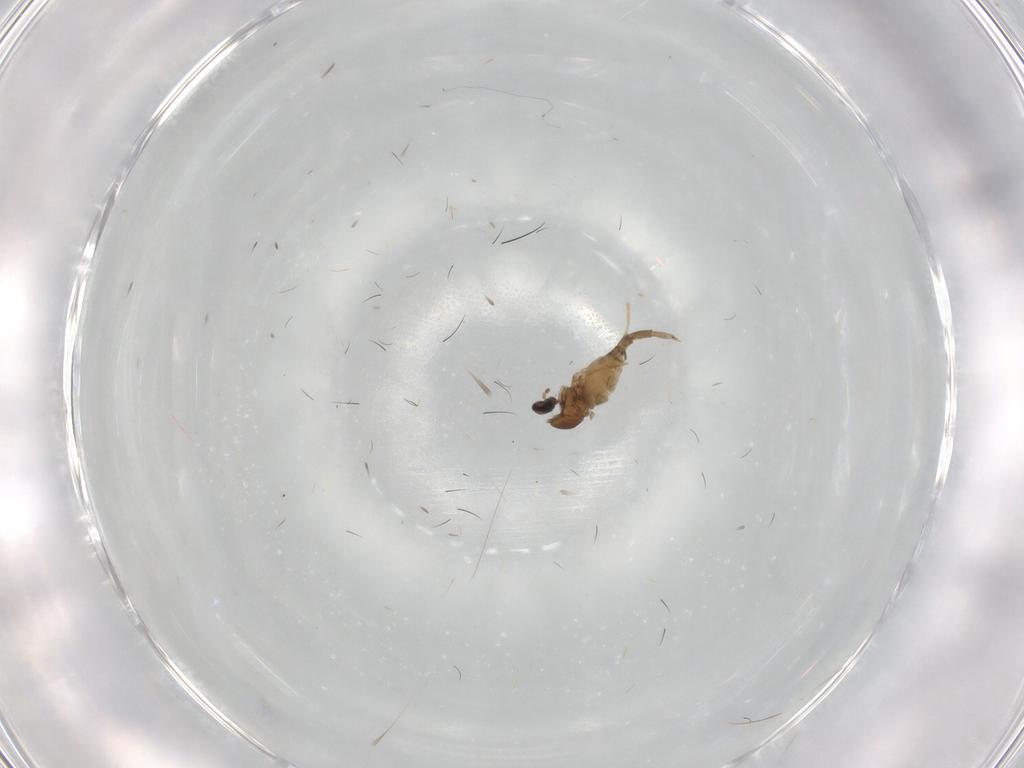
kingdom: Animalia
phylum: Arthropoda
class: Insecta
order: Diptera
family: Cecidomyiidae
